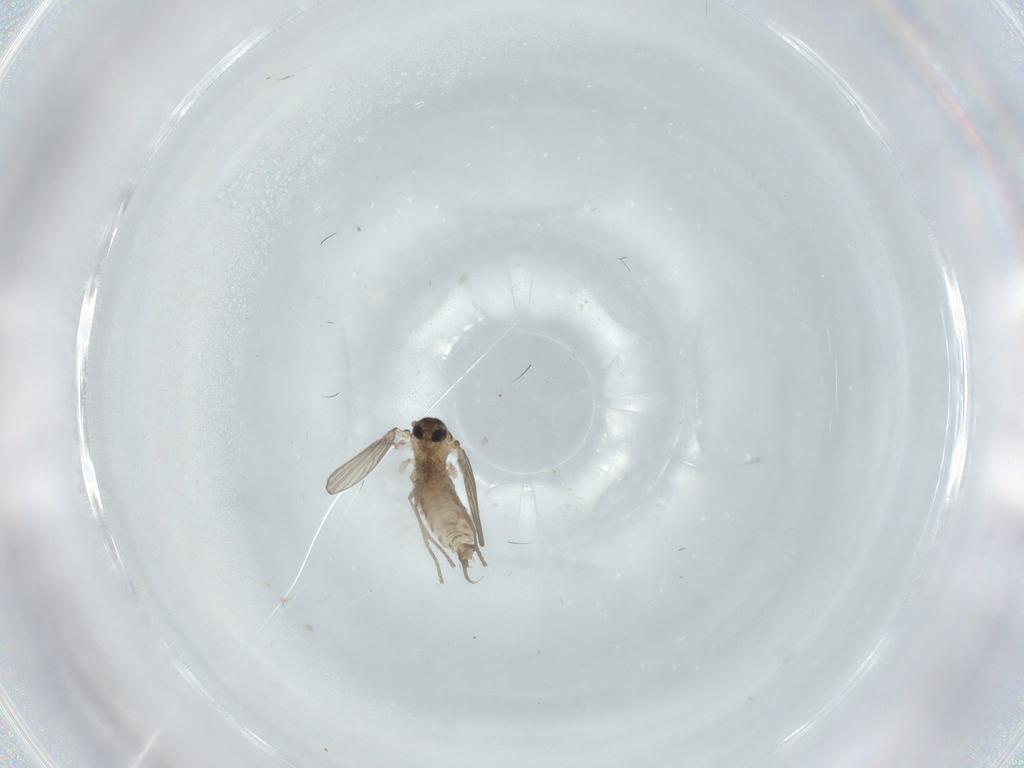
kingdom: Animalia
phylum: Arthropoda
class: Insecta
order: Diptera
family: Psychodidae
